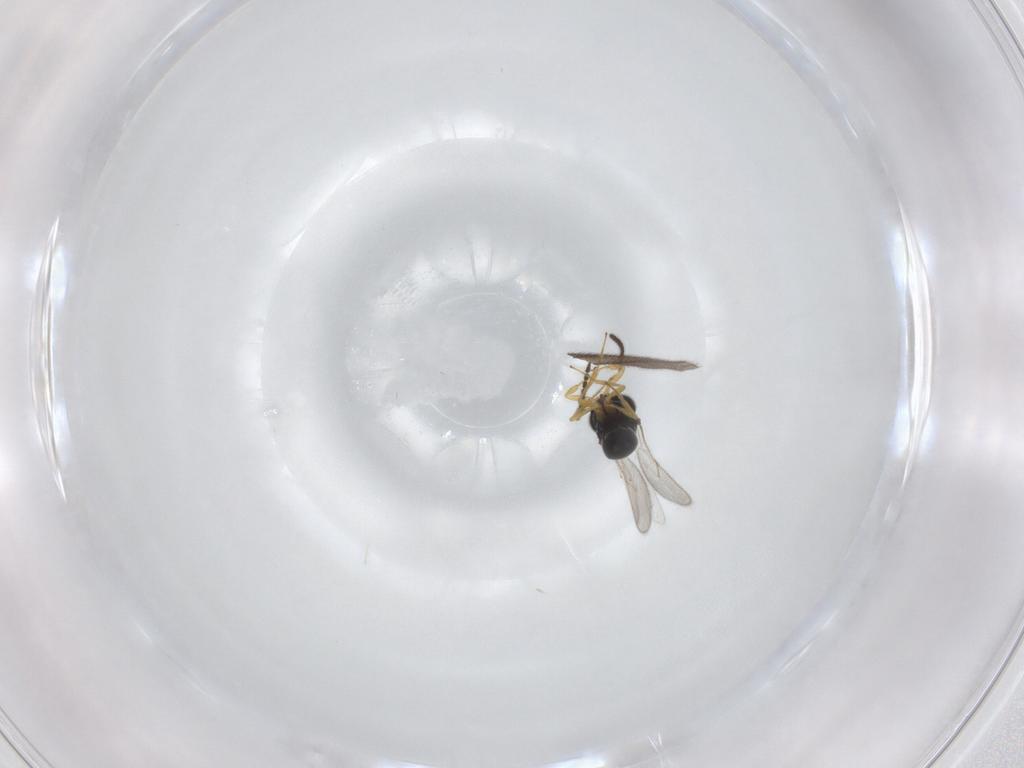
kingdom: Animalia
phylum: Arthropoda
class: Insecta
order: Hymenoptera
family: Scelionidae
